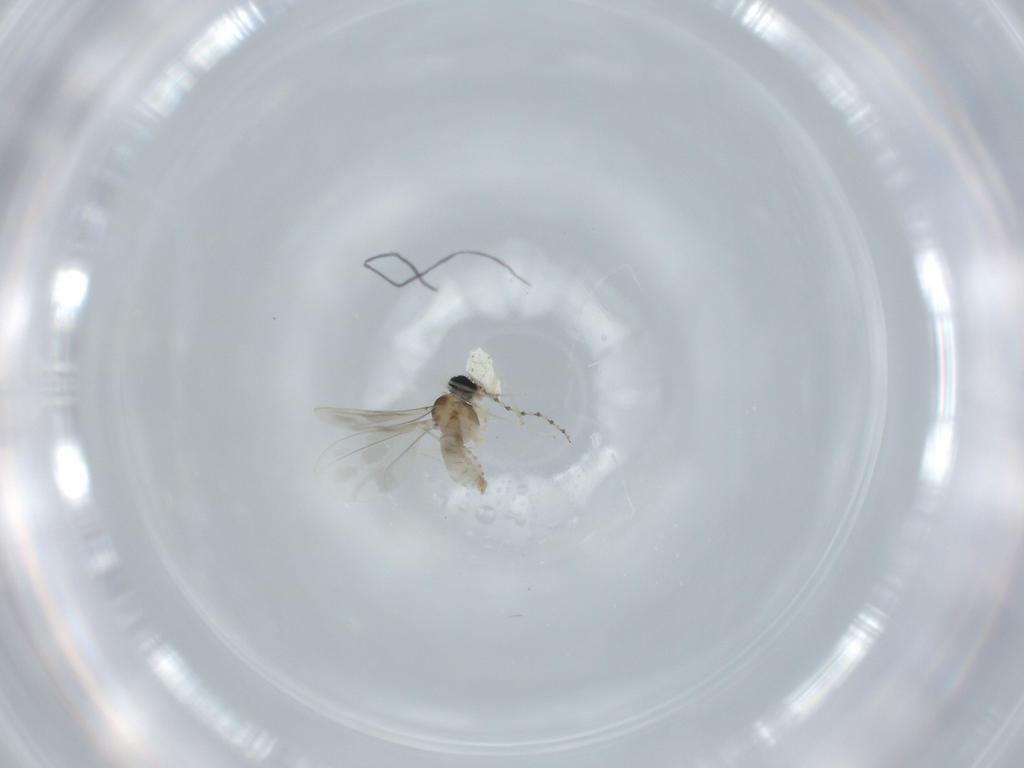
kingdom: Animalia
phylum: Arthropoda
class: Insecta
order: Diptera
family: Cecidomyiidae
